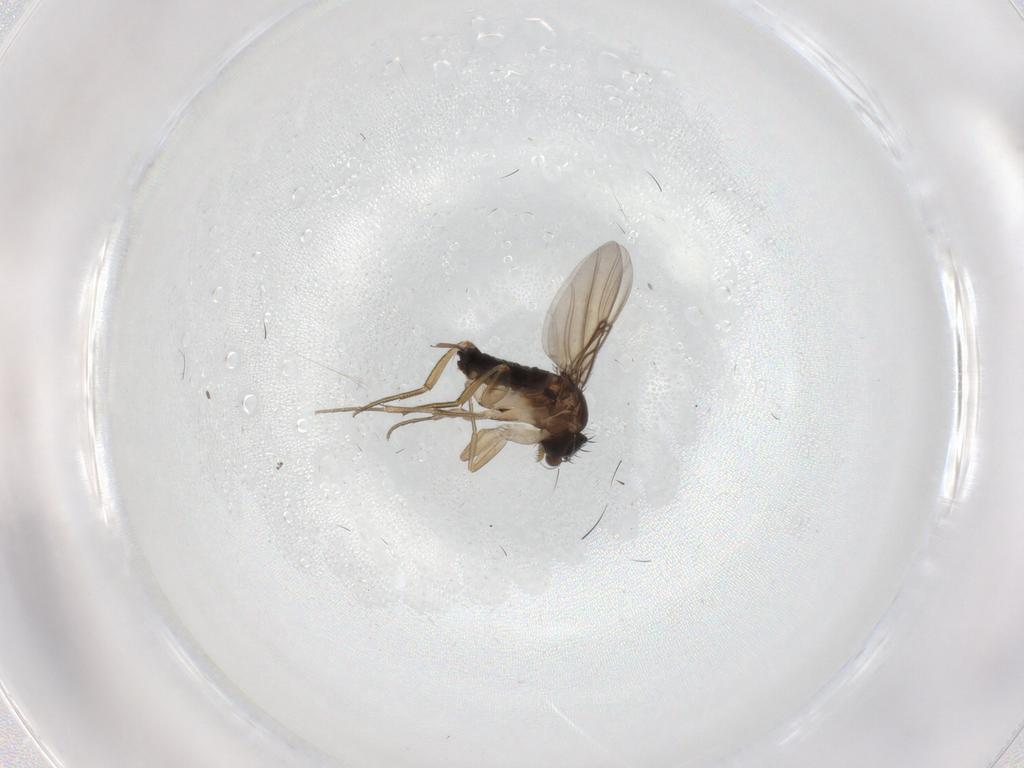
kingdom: Animalia
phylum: Arthropoda
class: Insecta
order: Diptera
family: Phoridae
